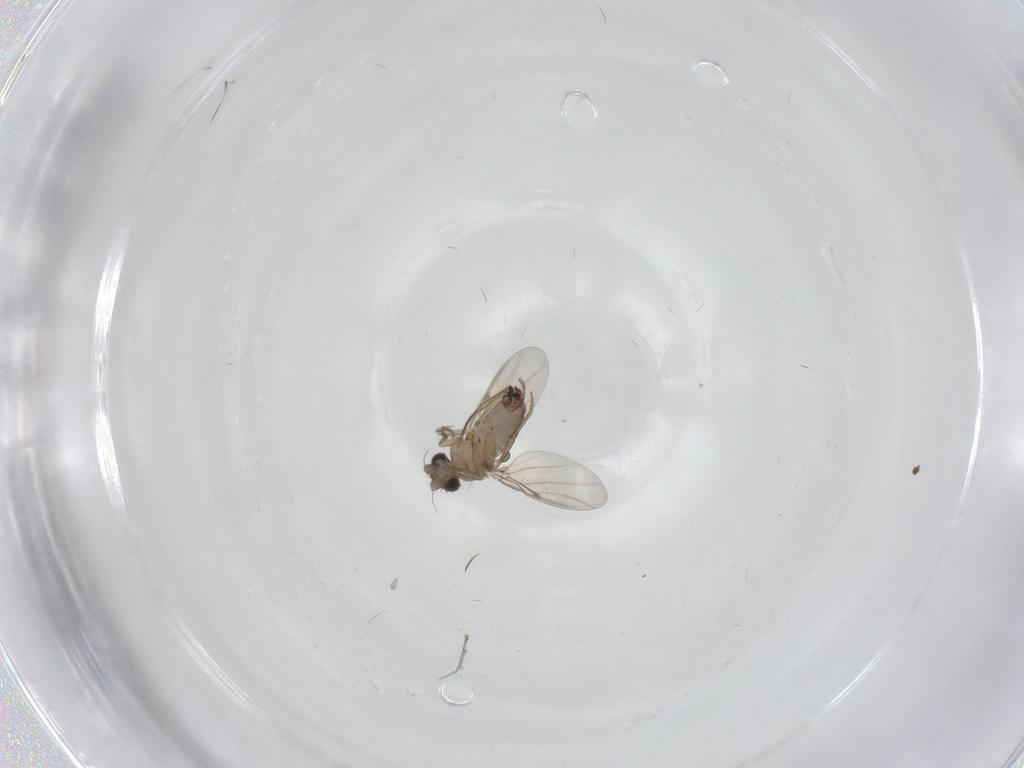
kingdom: Animalia
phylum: Arthropoda
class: Insecta
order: Diptera
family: Phoridae
